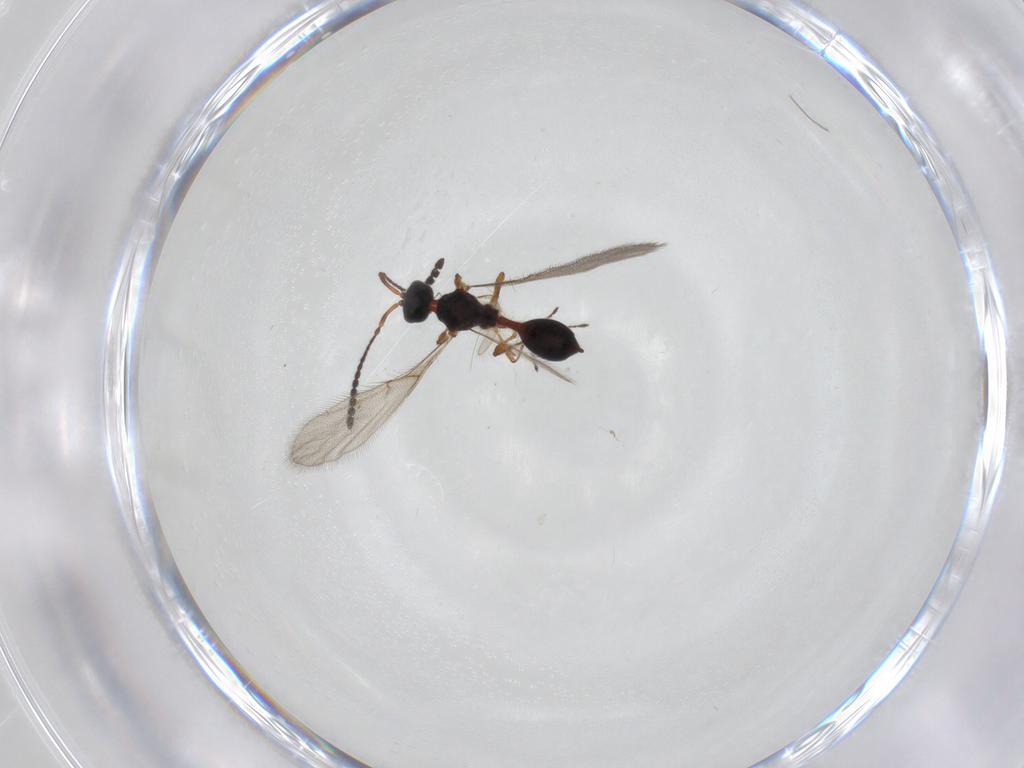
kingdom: Animalia
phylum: Arthropoda
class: Insecta
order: Hymenoptera
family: Diapriidae
